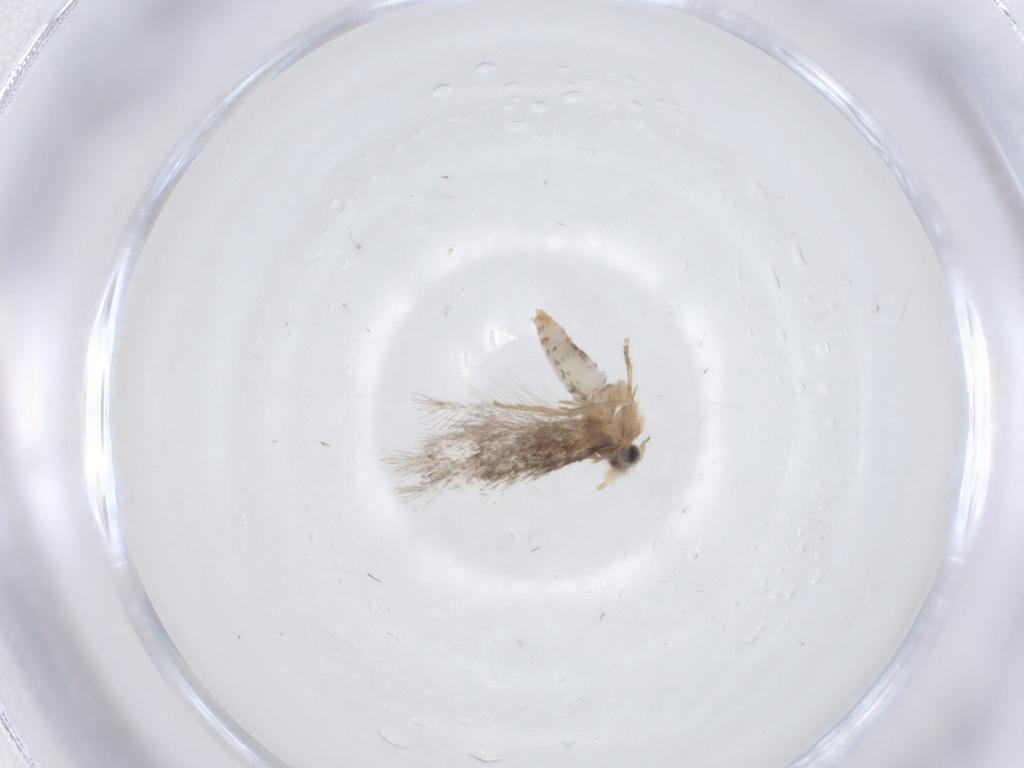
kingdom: Animalia
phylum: Arthropoda
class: Insecta
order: Lepidoptera
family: Nepticulidae
